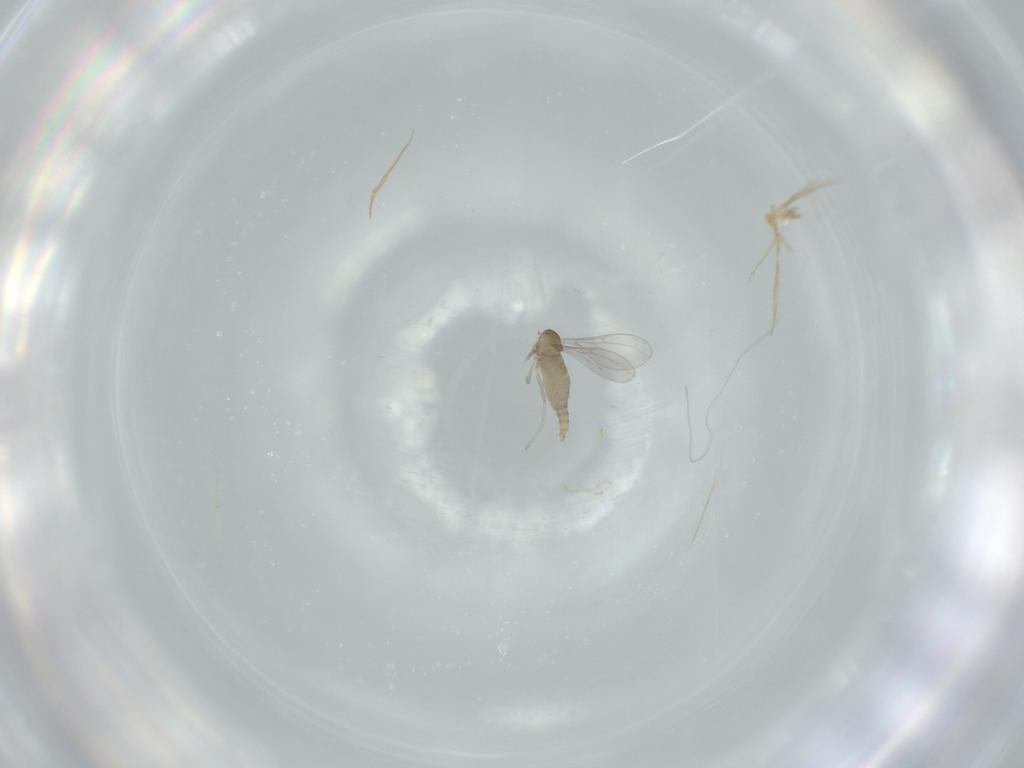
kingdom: Animalia
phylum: Arthropoda
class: Insecta
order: Diptera
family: Cecidomyiidae
